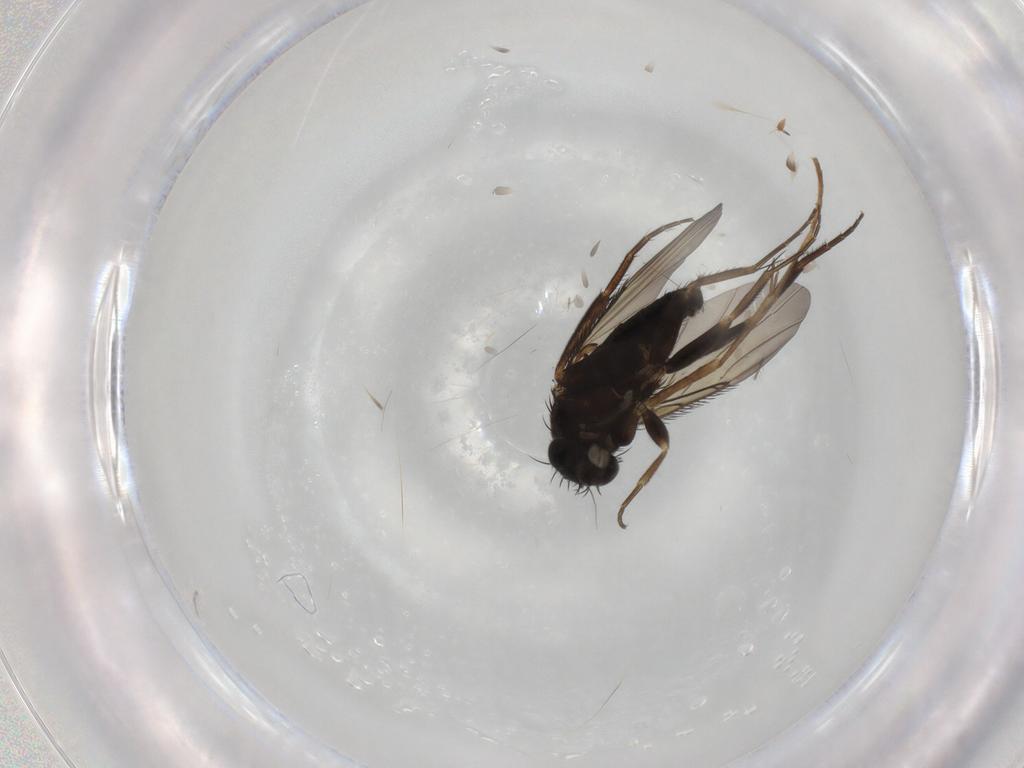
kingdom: Animalia
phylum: Arthropoda
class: Insecta
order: Diptera
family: Phoridae
